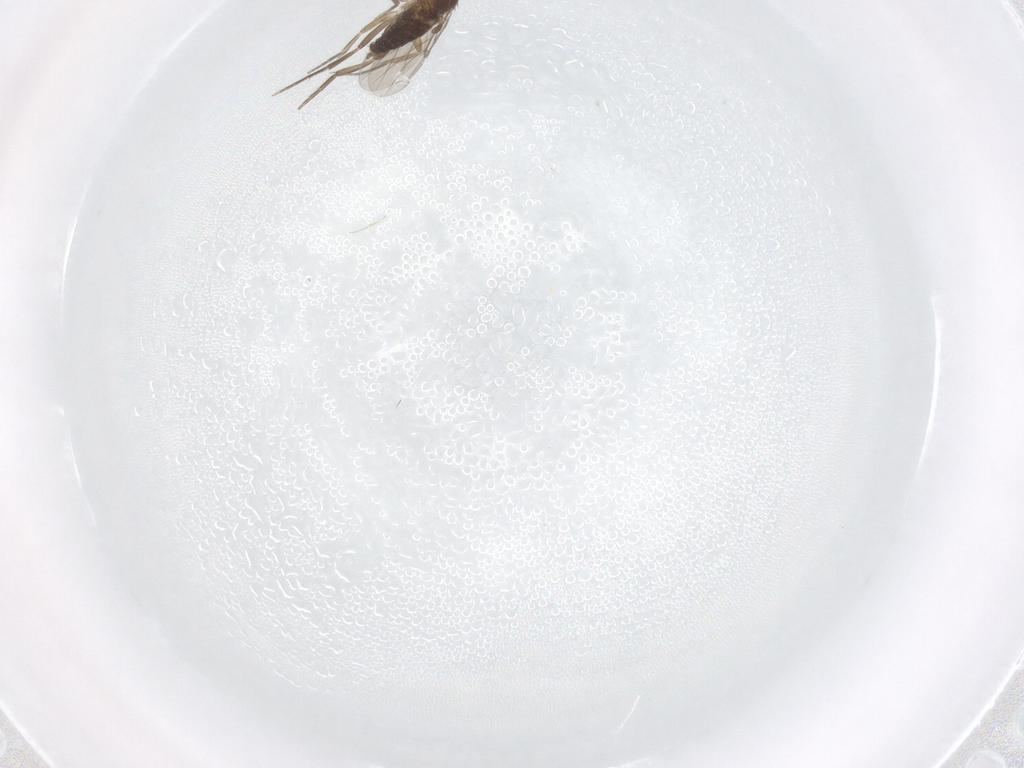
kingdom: Animalia
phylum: Arthropoda
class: Insecta
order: Diptera
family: Phoridae
